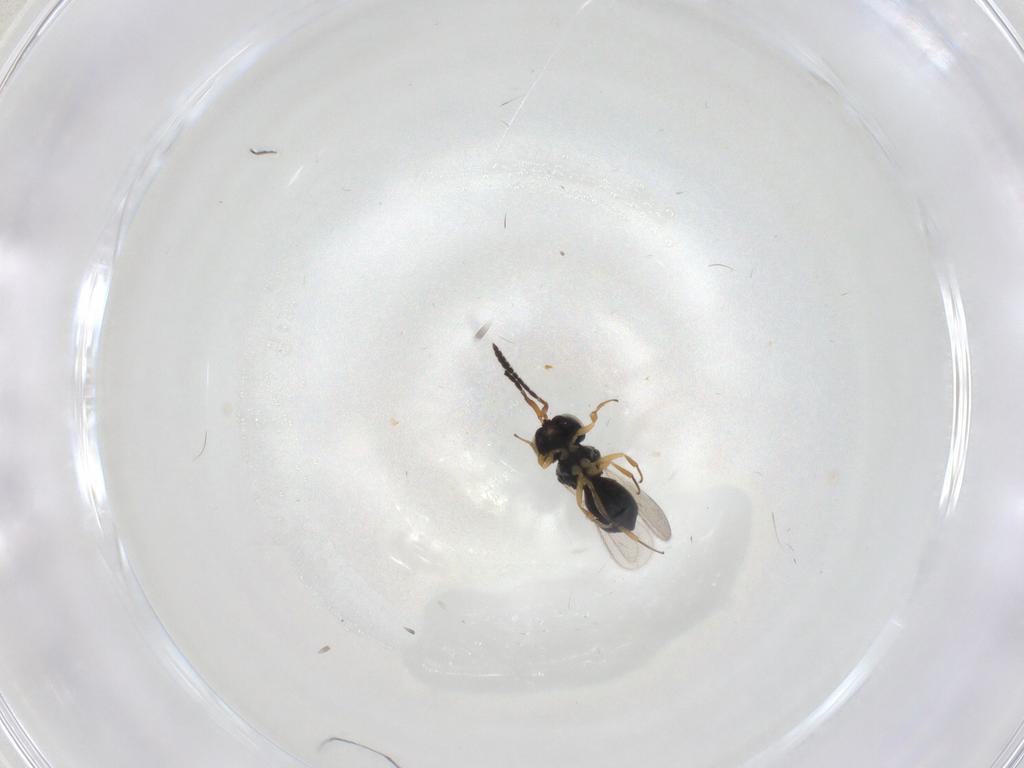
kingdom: Animalia
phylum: Arthropoda
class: Insecta
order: Hymenoptera
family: Scelionidae
